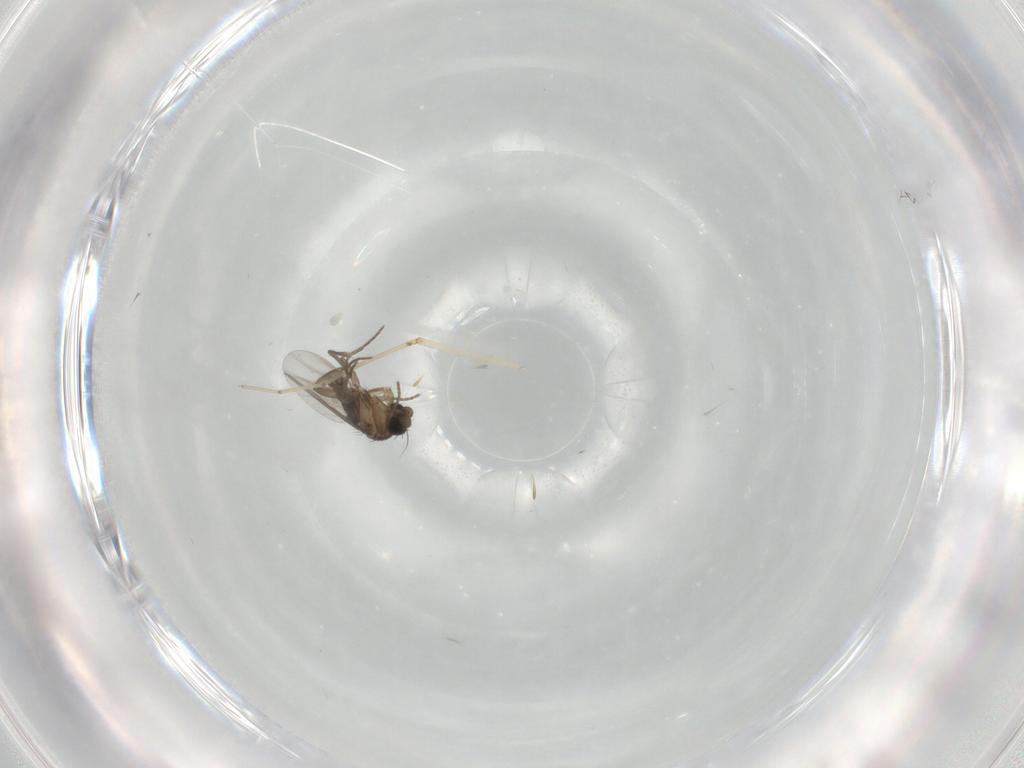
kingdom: Animalia
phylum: Arthropoda
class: Insecta
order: Diptera
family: Cecidomyiidae
